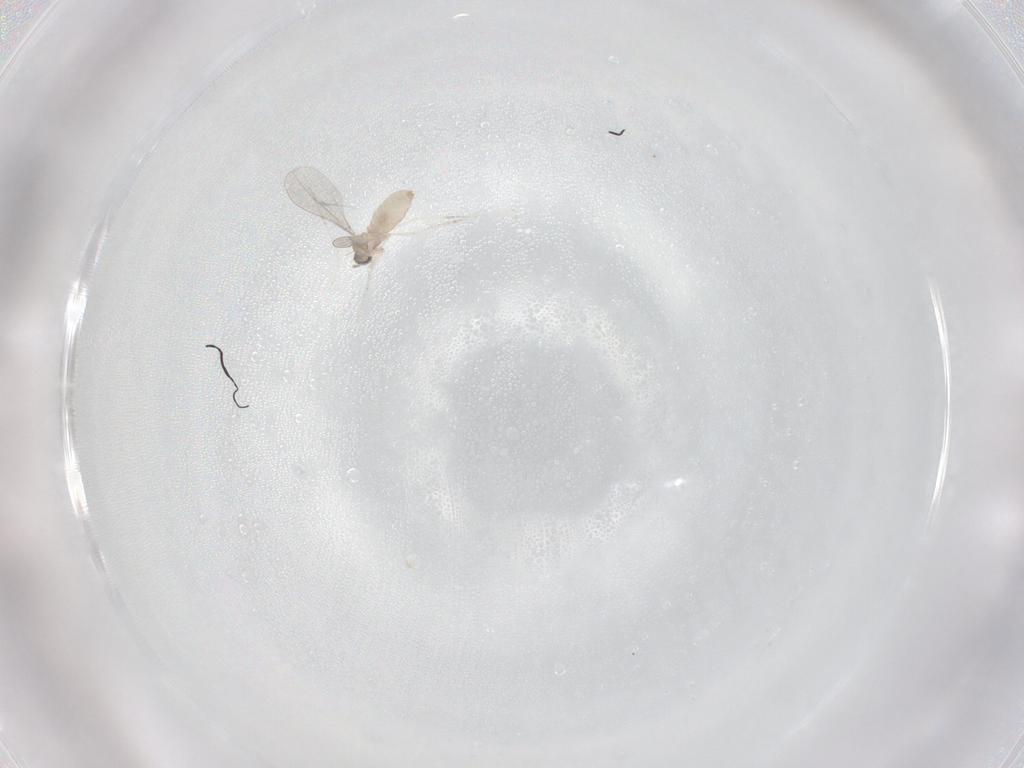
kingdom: Animalia
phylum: Arthropoda
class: Insecta
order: Diptera
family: Cecidomyiidae
